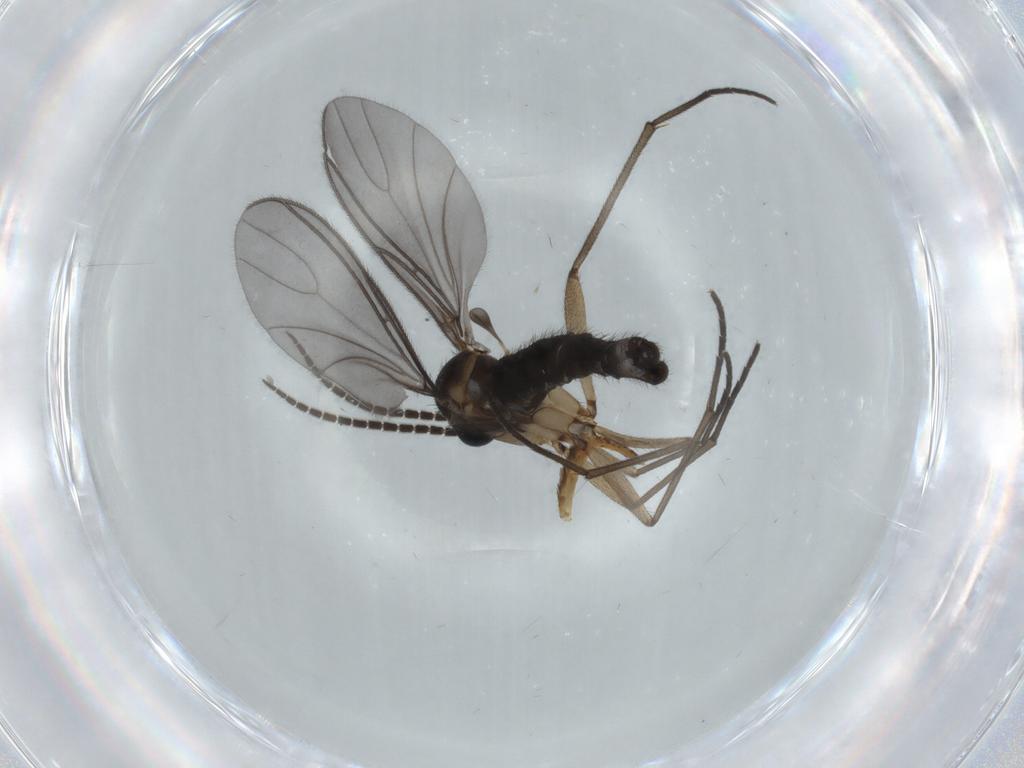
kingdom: Animalia
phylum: Arthropoda
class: Insecta
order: Diptera
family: Sciaridae
